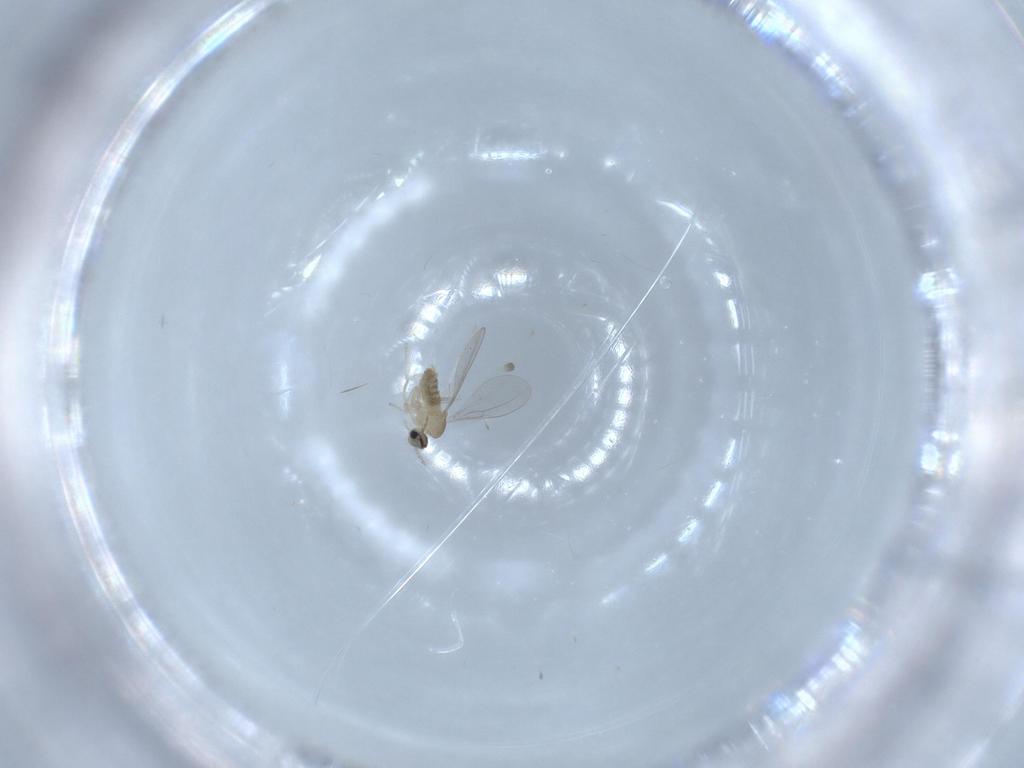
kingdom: Animalia
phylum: Arthropoda
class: Insecta
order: Diptera
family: Cecidomyiidae
